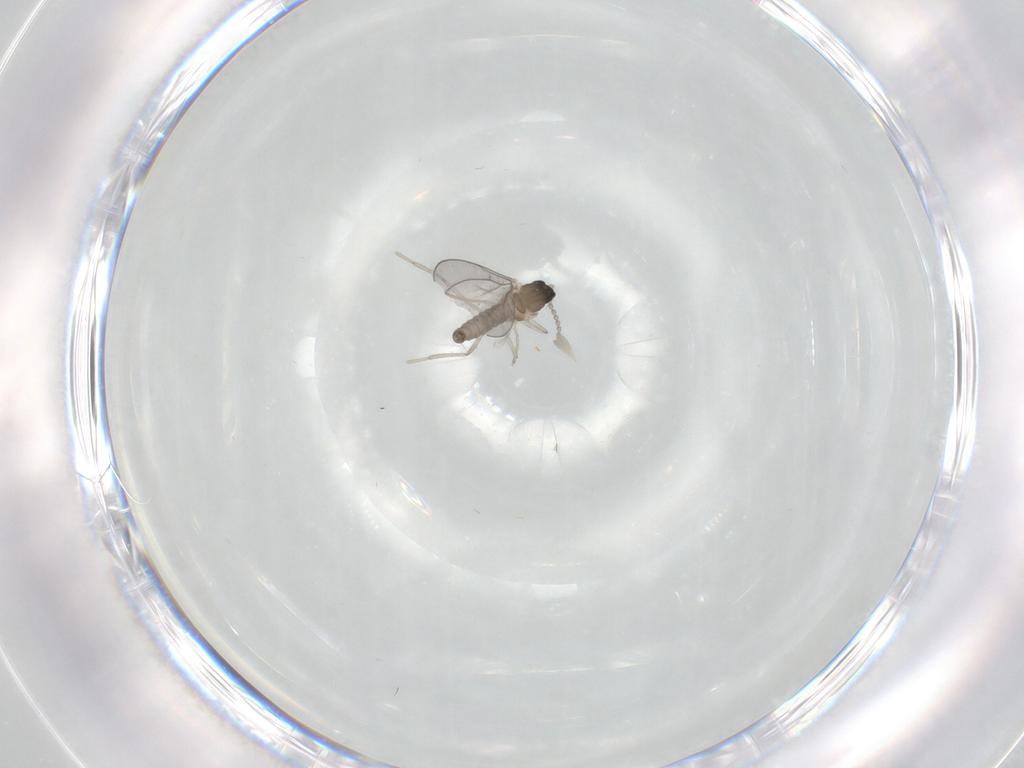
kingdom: Animalia
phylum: Arthropoda
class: Insecta
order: Diptera
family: Cecidomyiidae
